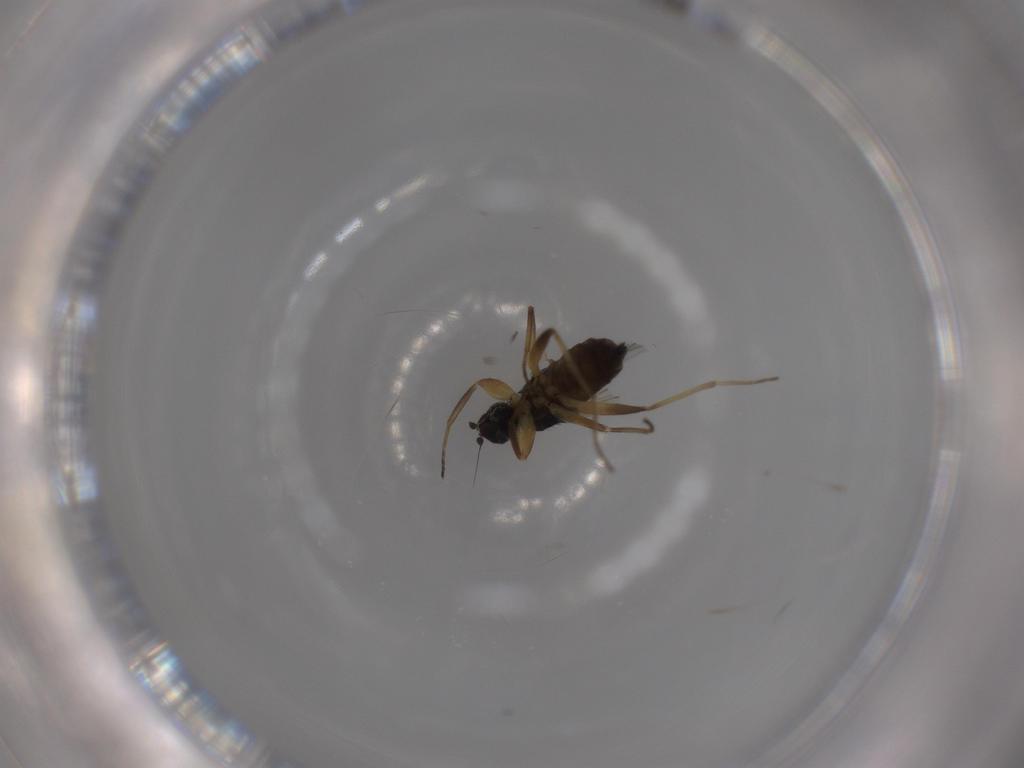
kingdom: Animalia
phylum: Arthropoda
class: Insecta
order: Diptera
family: Hybotidae
